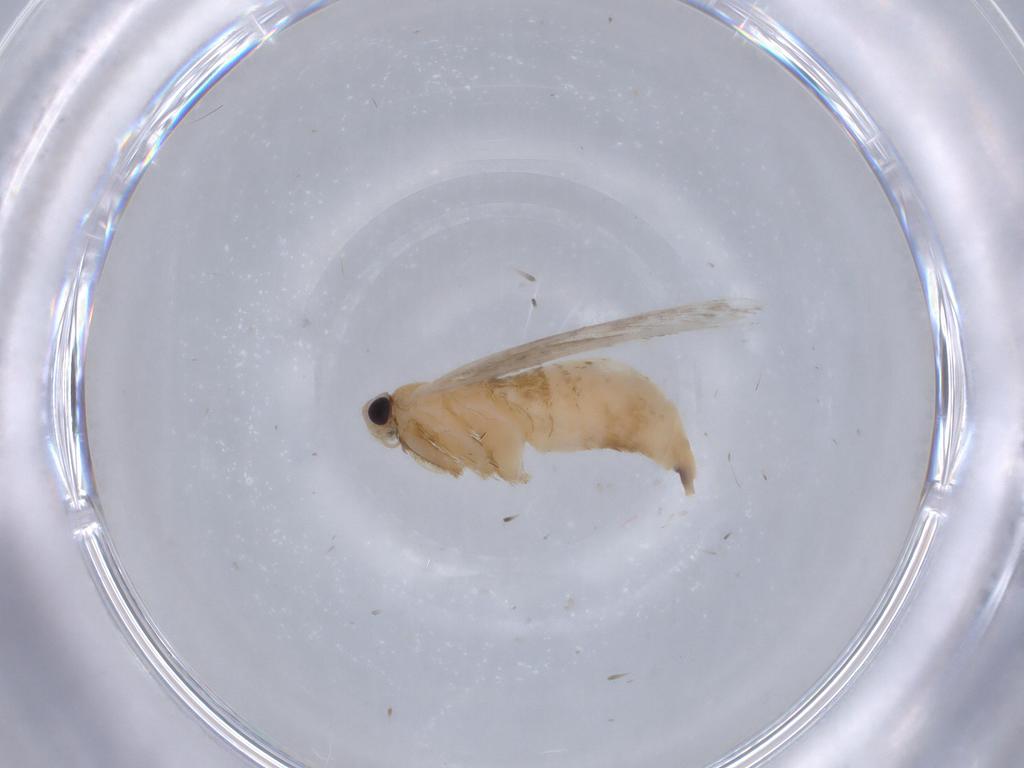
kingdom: Animalia
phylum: Arthropoda
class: Insecta
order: Lepidoptera
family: Tineidae
